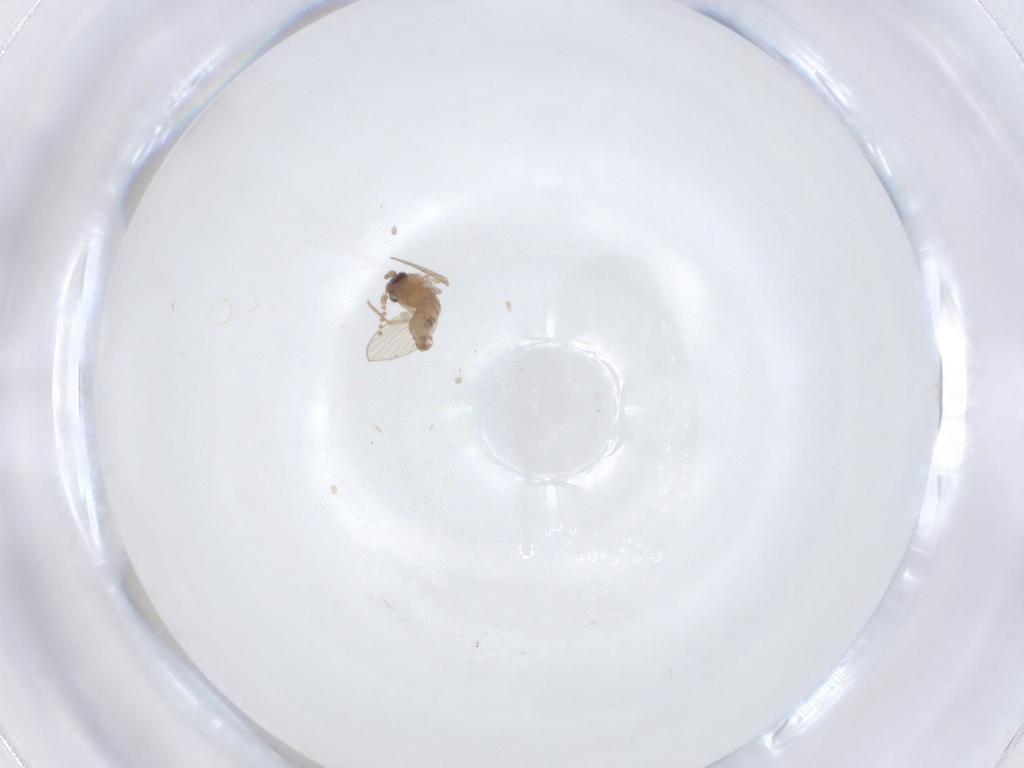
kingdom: Animalia
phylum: Arthropoda
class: Insecta
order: Diptera
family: Psychodidae
